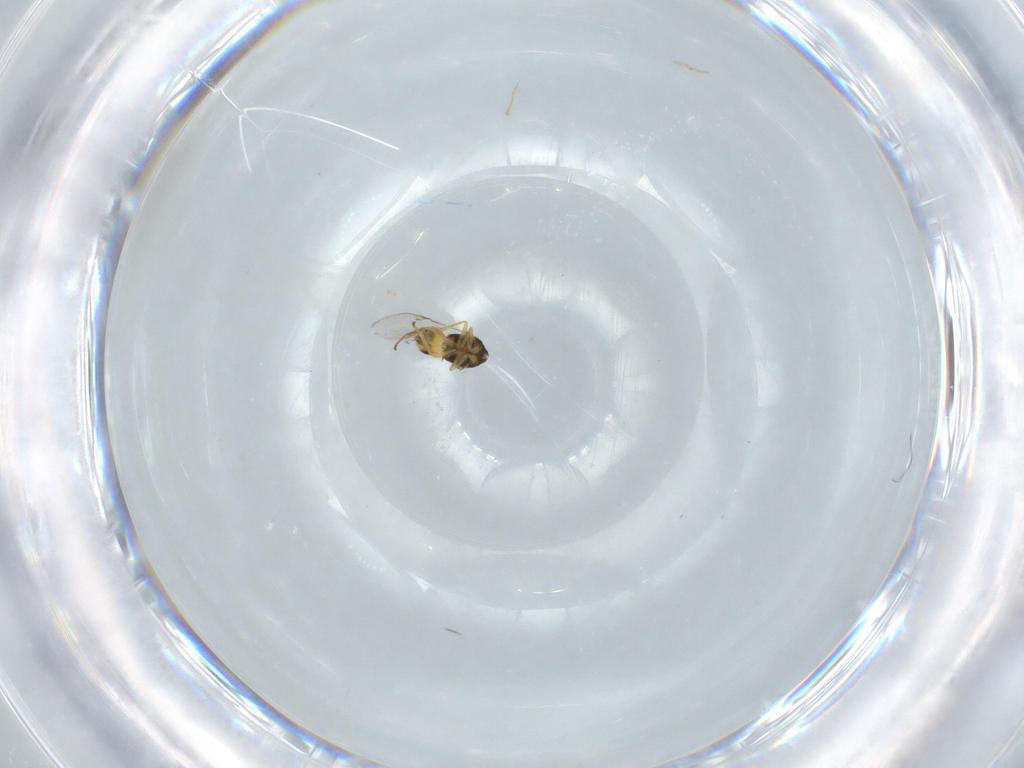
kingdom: Animalia
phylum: Arthropoda
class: Insecta
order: Hymenoptera
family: Encyrtidae
